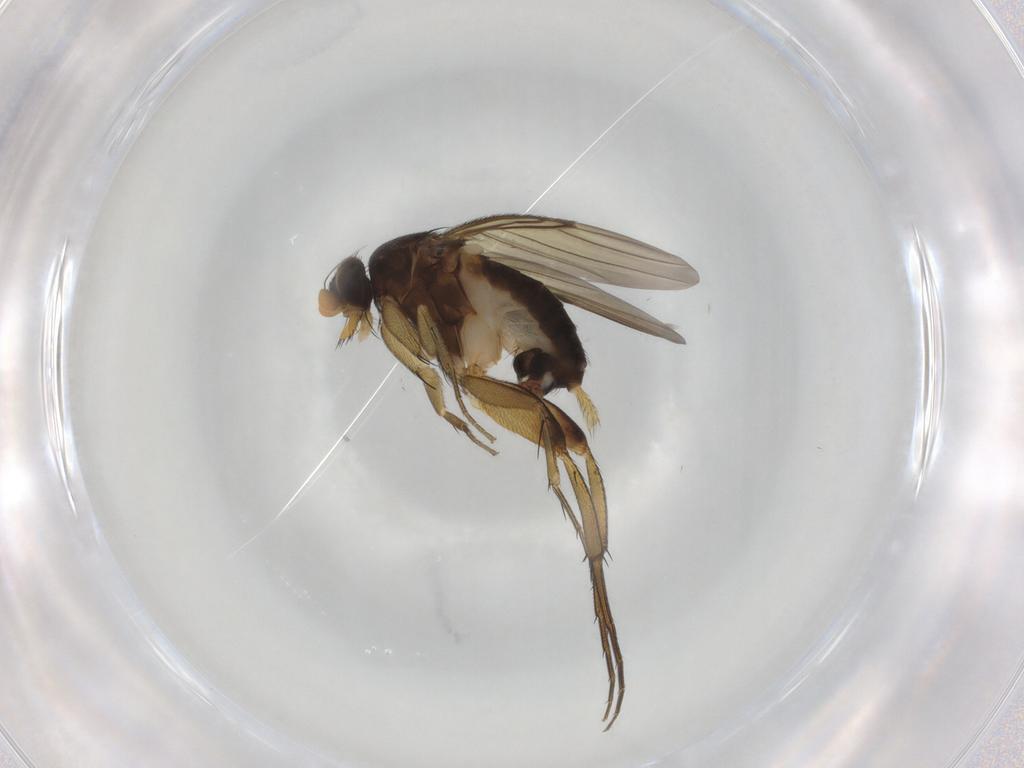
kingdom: Animalia
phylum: Arthropoda
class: Insecta
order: Diptera
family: Phoridae
